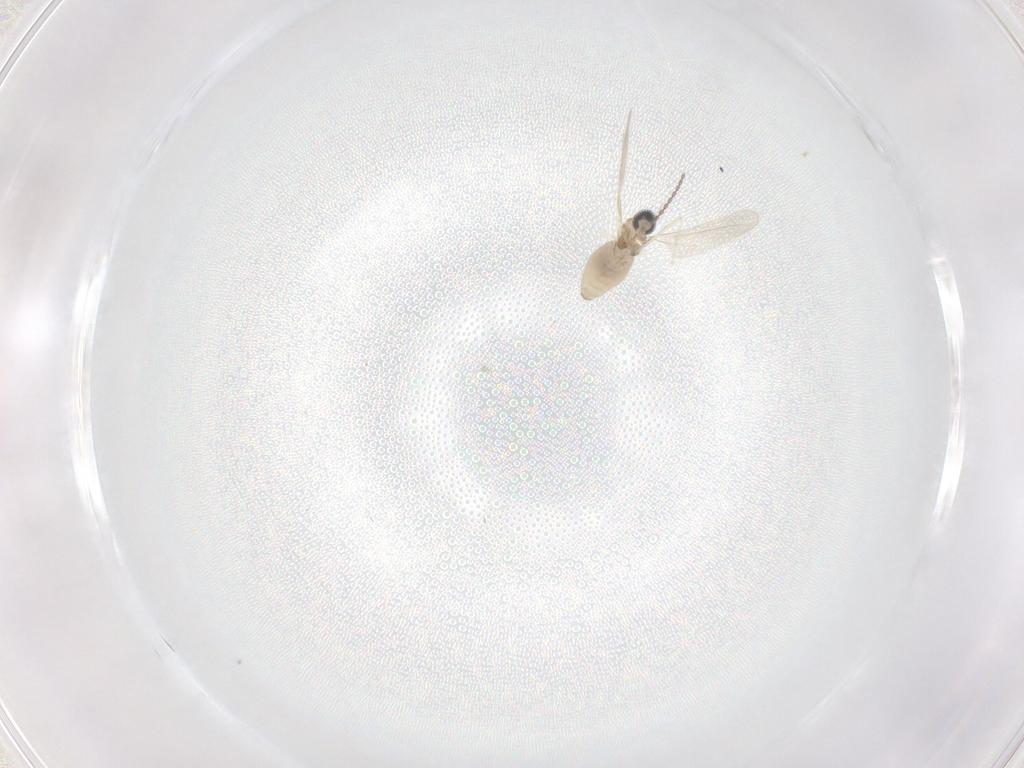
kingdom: Animalia
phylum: Arthropoda
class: Insecta
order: Diptera
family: Cecidomyiidae
